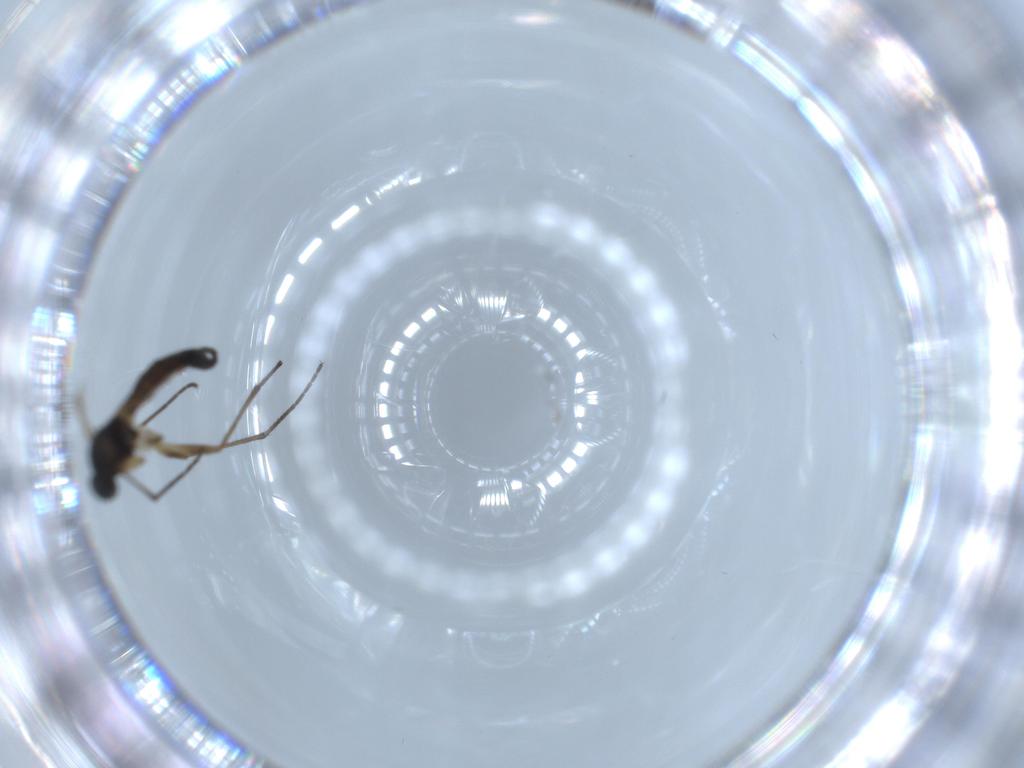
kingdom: Animalia
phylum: Arthropoda
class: Insecta
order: Diptera
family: Sciaridae
